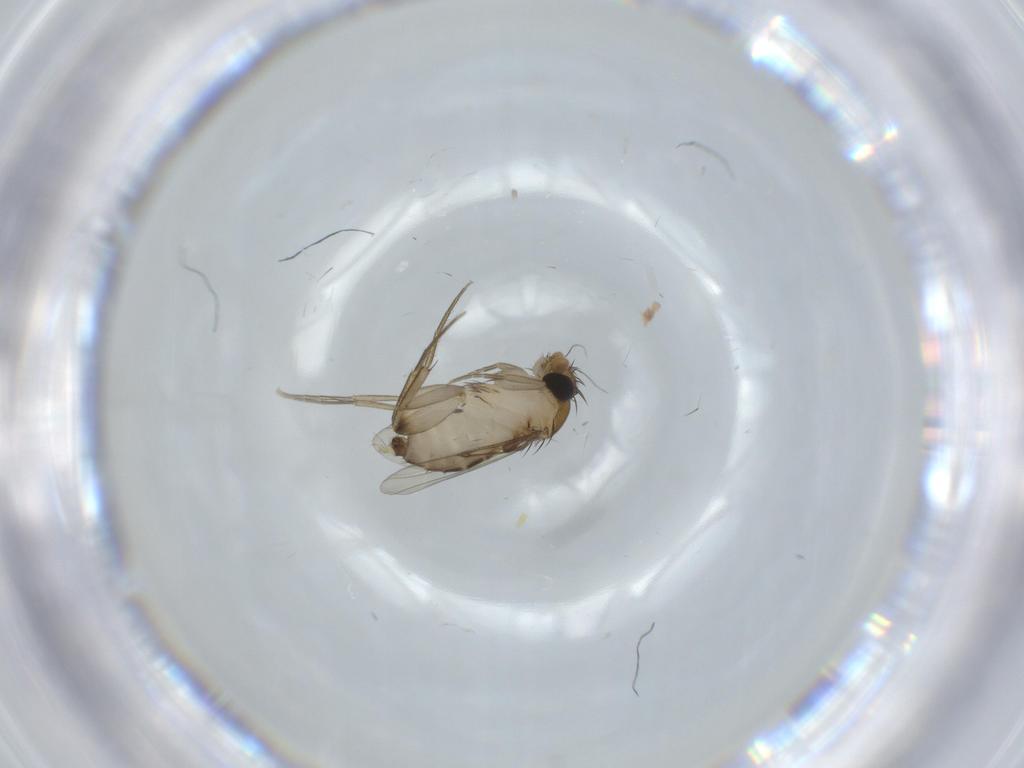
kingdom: Animalia
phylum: Arthropoda
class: Insecta
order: Diptera
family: Phoridae
